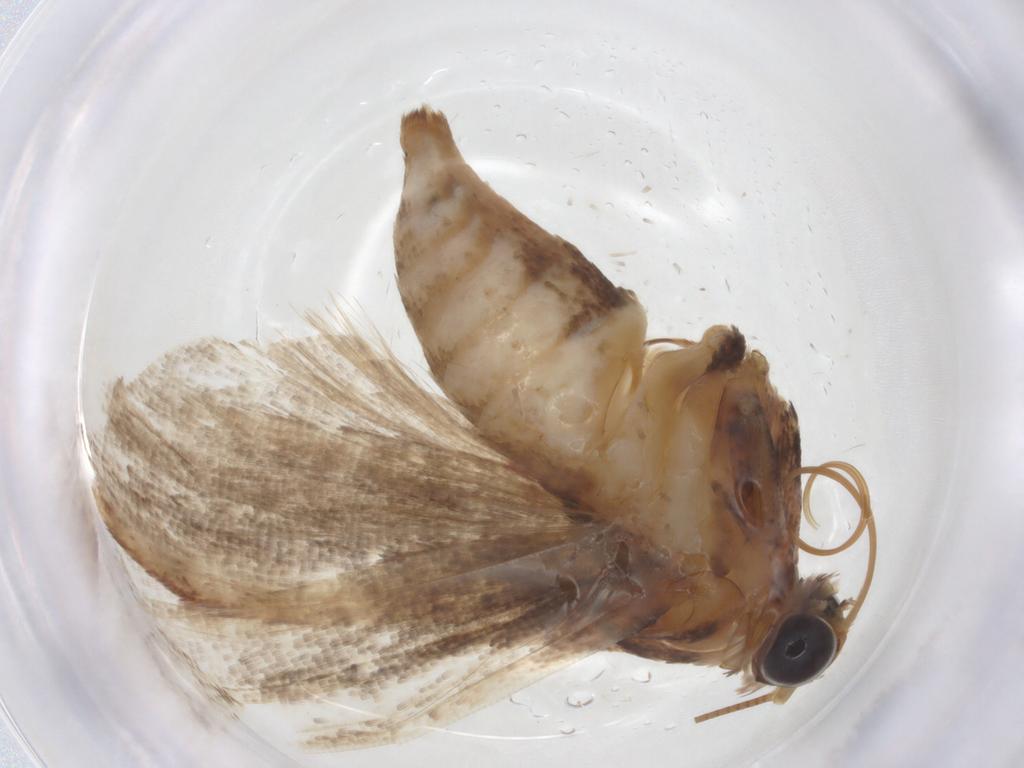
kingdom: Animalia
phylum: Arthropoda
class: Insecta
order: Lepidoptera
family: Pyralidae
